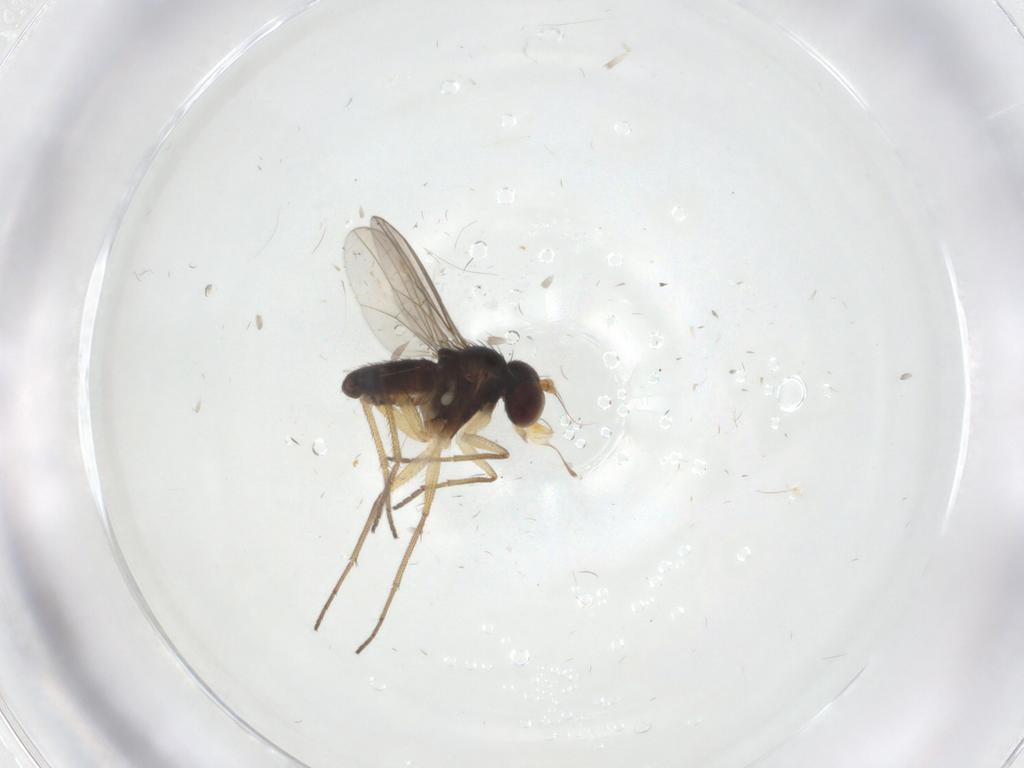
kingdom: Animalia
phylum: Arthropoda
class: Insecta
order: Diptera
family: Dolichopodidae
